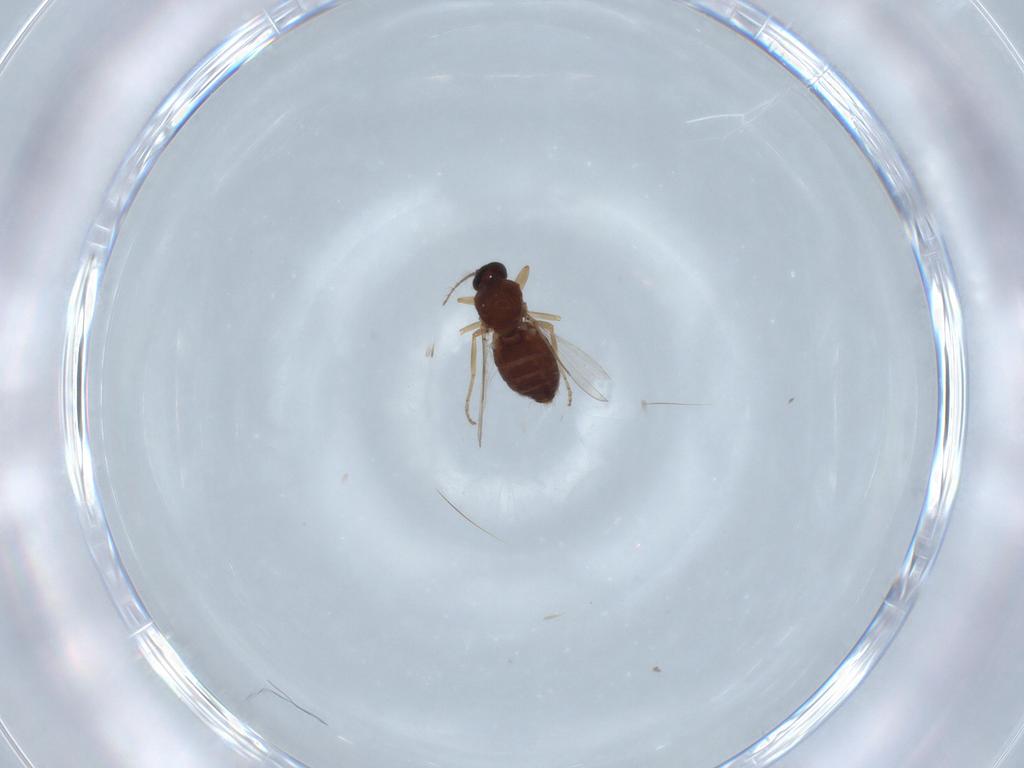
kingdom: Animalia
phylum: Arthropoda
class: Insecta
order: Diptera
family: Ceratopogonidae
